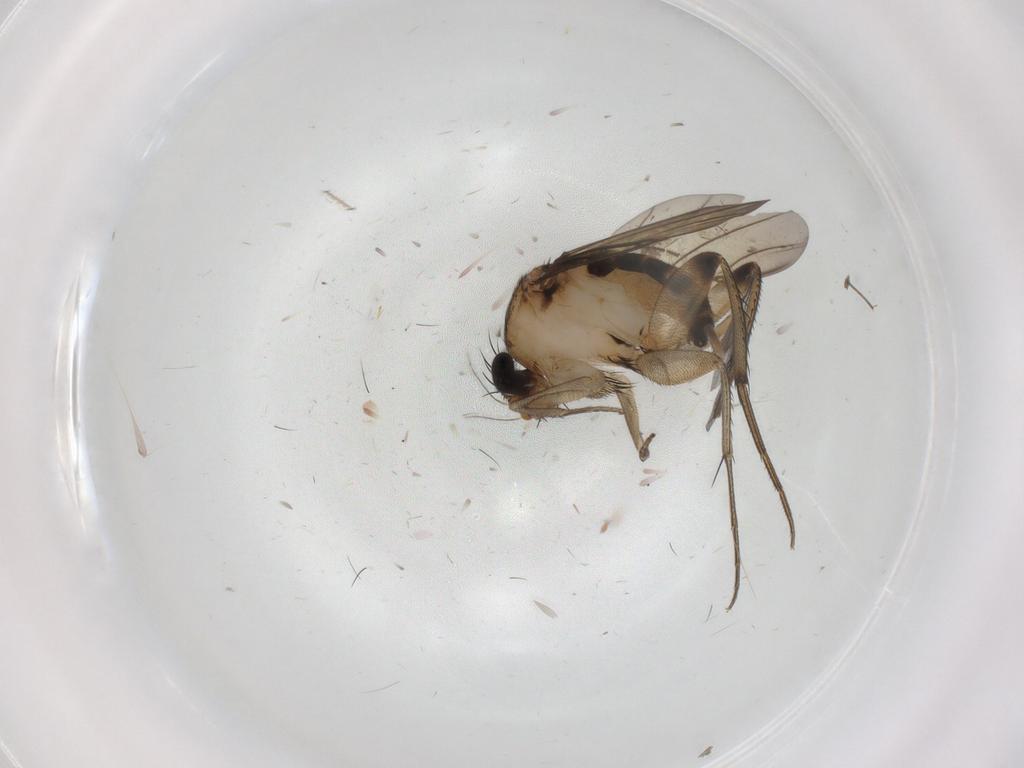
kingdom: Animalia
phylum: Arthropoda
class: Insecta
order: Diptera
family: Phoridae
